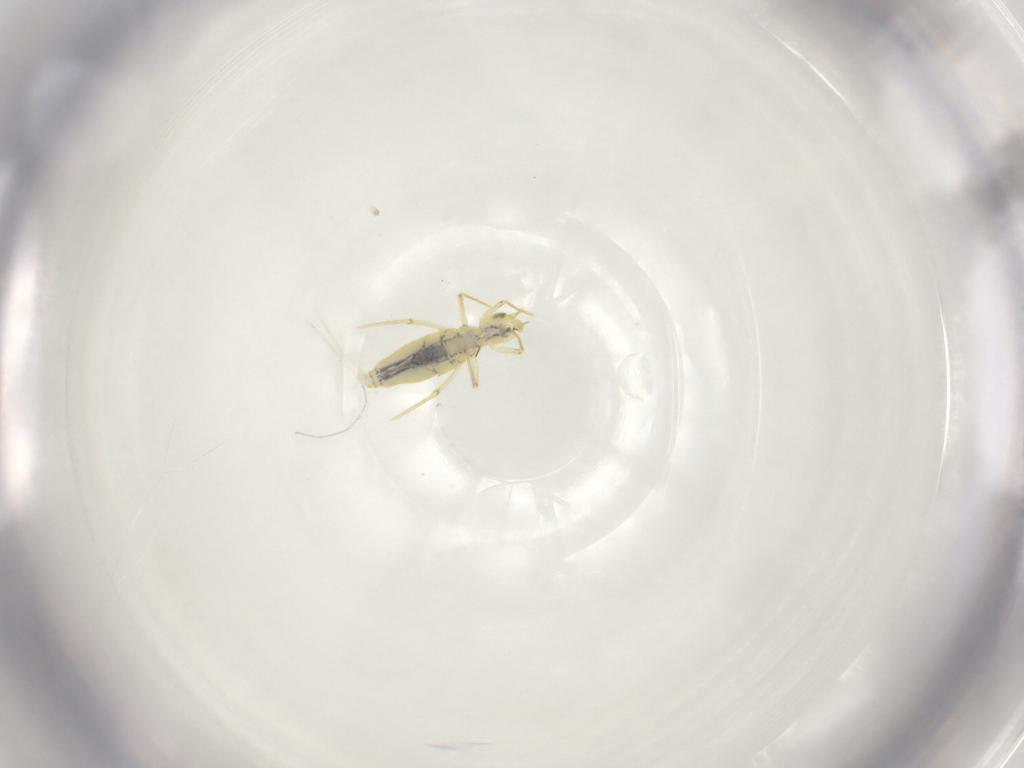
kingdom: Animalia
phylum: Arthropoda
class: Collembola
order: Entomobryomorpha
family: Entomobryidae
